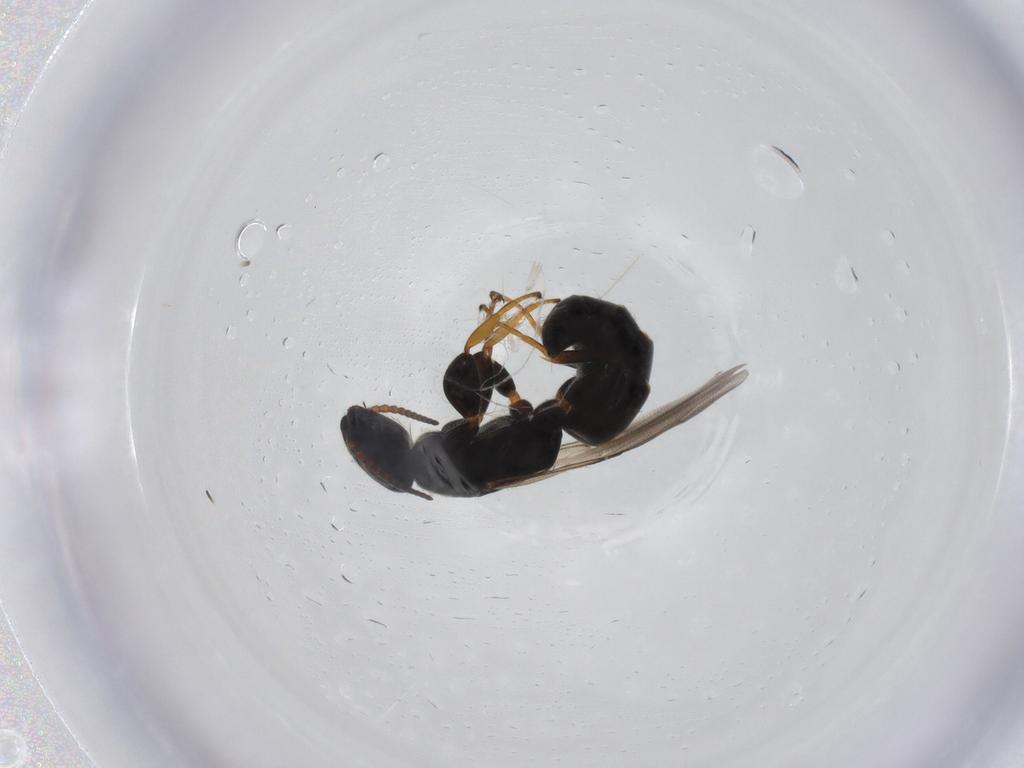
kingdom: Animalia
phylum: Arthropoda
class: Insecta
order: Hymenoptera
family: Bethylidae
